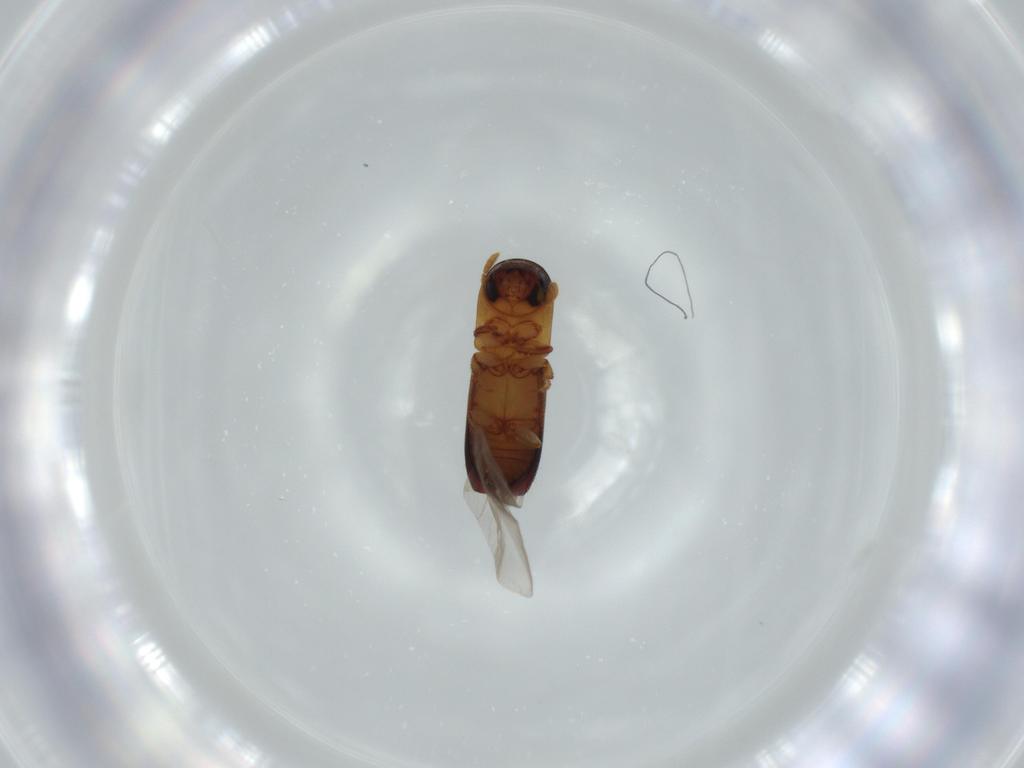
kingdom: Animalia
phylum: Arthropoda
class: Insecta
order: Coleoptera
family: Curculionidae
